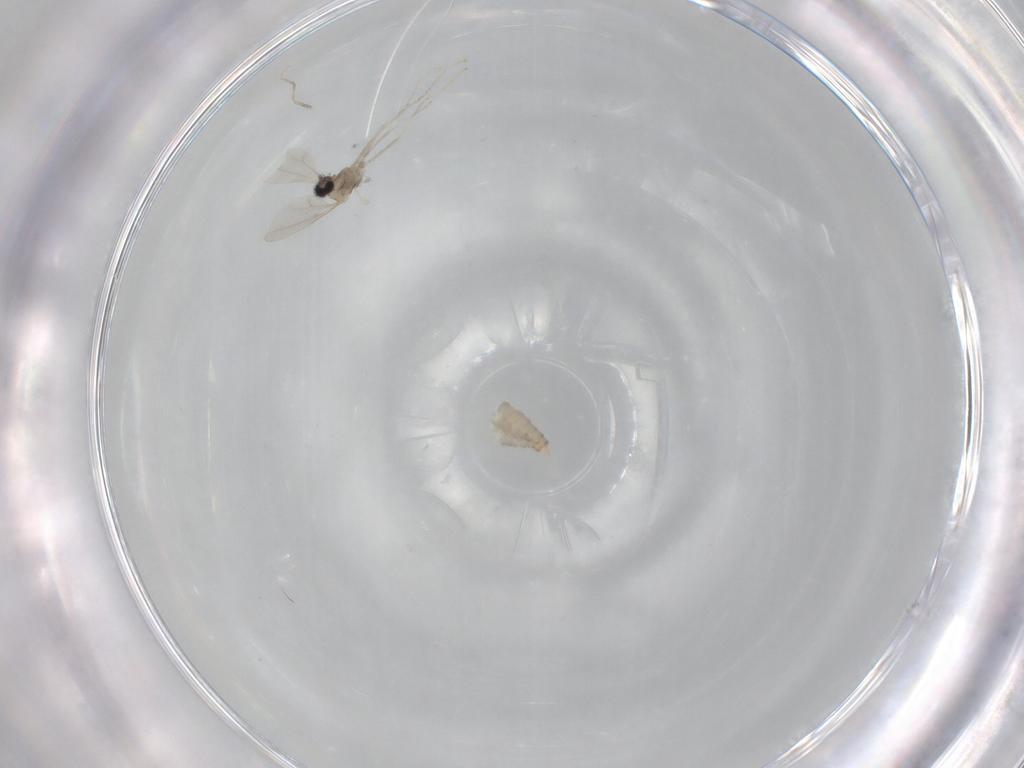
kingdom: Animalia
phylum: Arthropoda
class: Insecta
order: Diptera
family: Cecidomyiidae
